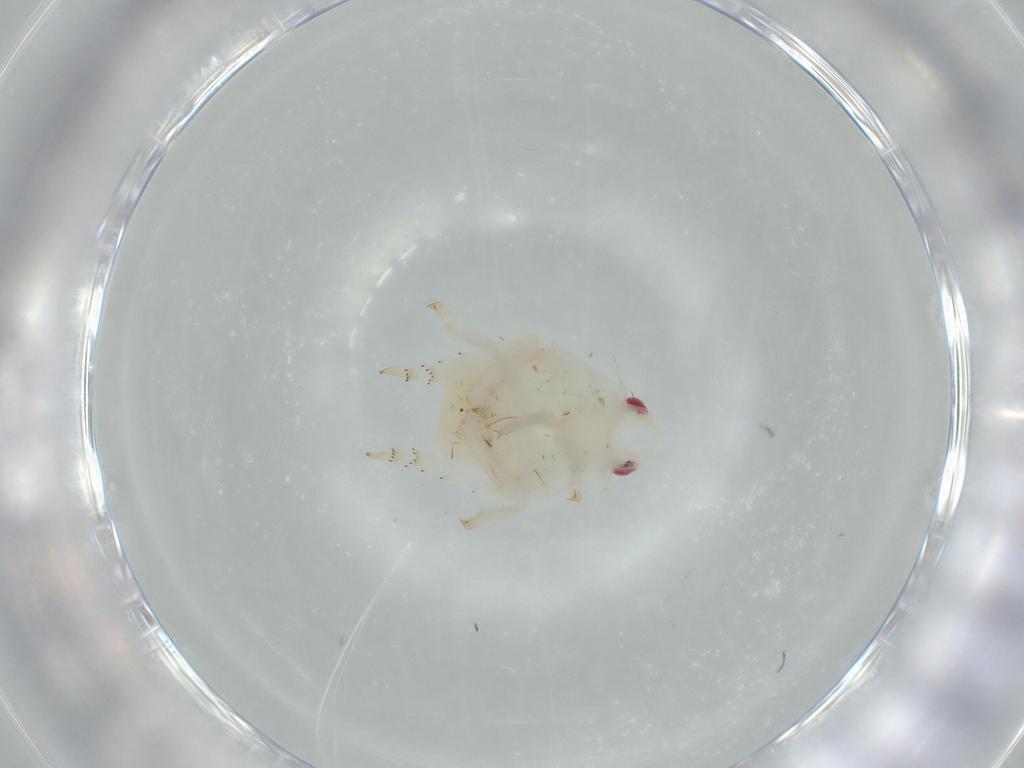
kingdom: Animalia
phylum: Arthropoda
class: Insecta
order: Hemiptera
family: Flatidae
